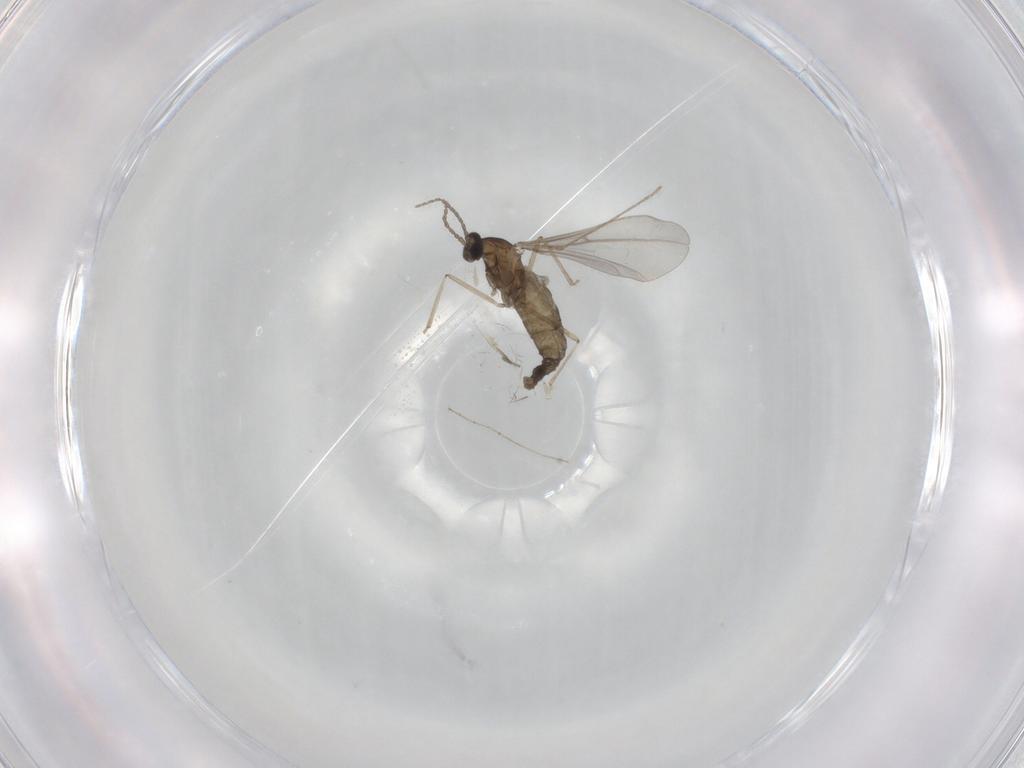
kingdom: Animalia
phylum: Arthropoda
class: Insecta
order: Diptera
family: Cecidomyiidae
